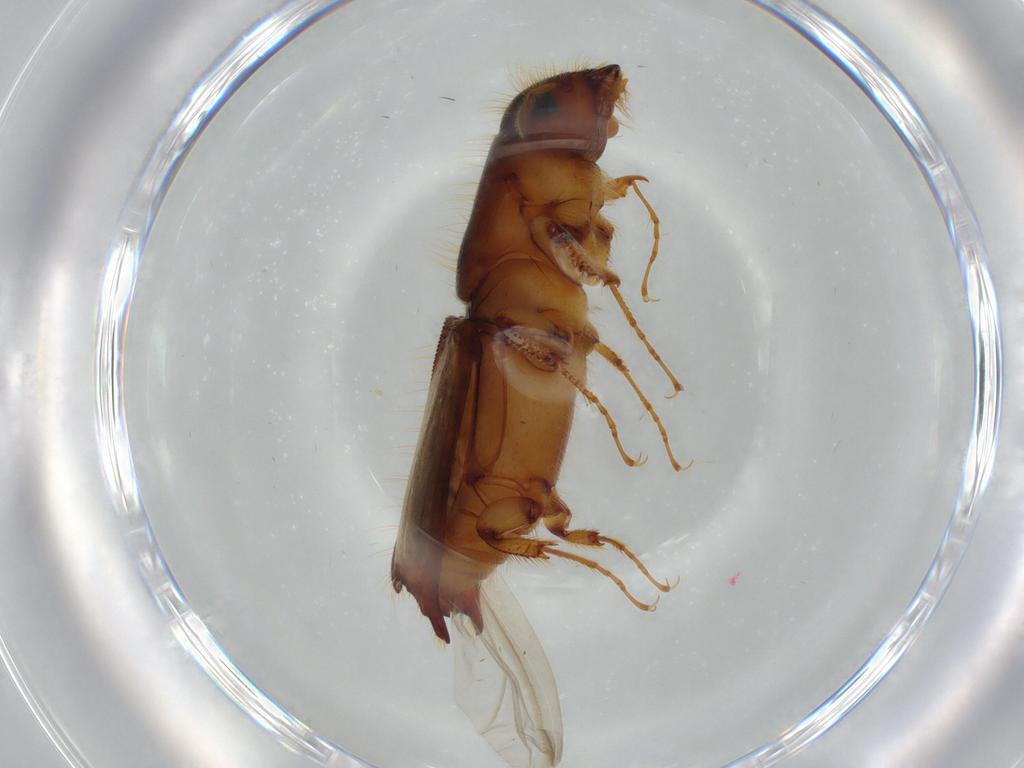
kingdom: Animalia
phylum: Arthropoda
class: Insecta
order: Coleoptera
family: Curculionidae
